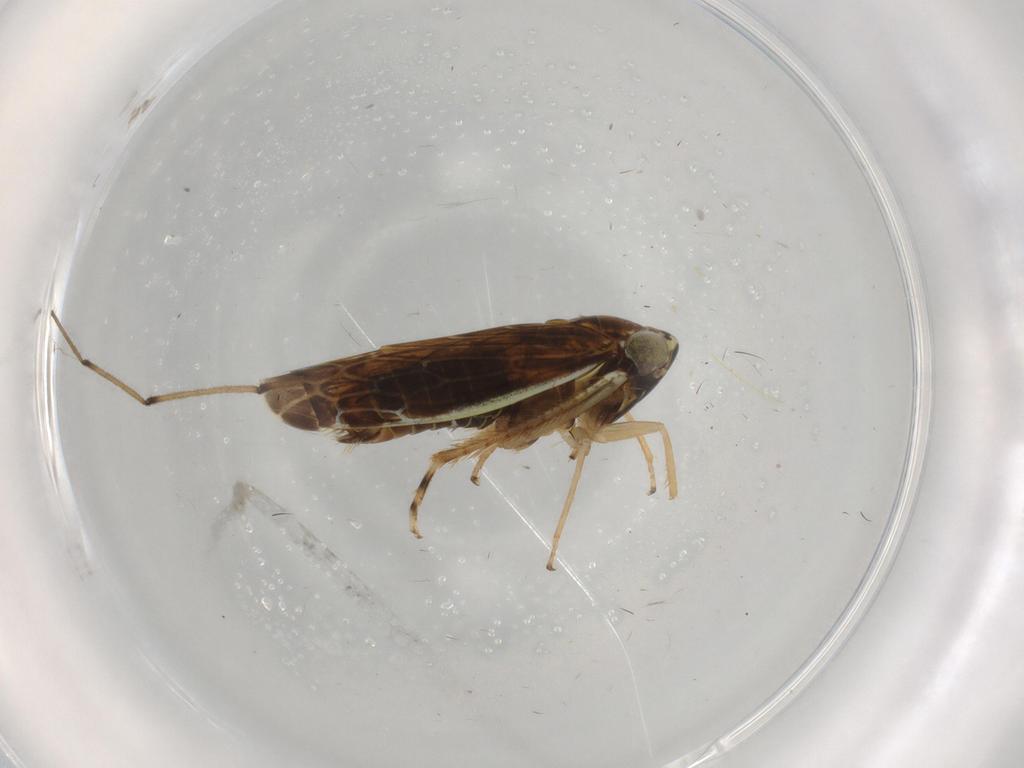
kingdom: Animalia
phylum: Arthropoda
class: Insecta
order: Hemiptera
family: Cicadellidae
